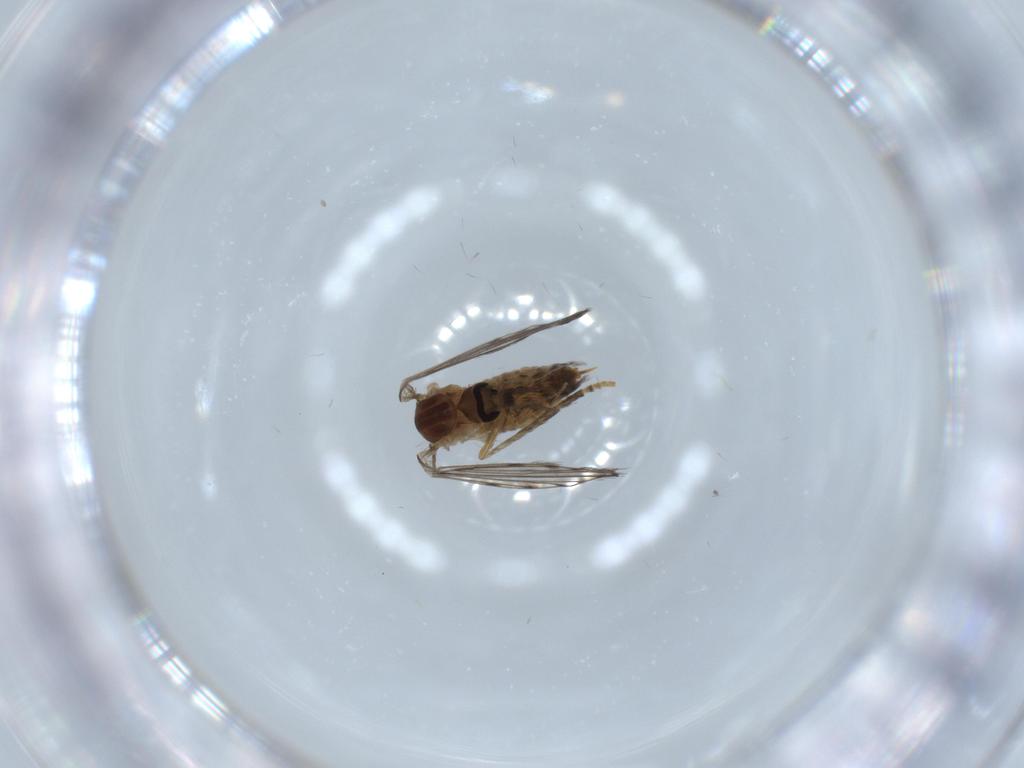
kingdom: Animalia
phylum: Arthropoda
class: Insecta
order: Diptera
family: Psychodidae
